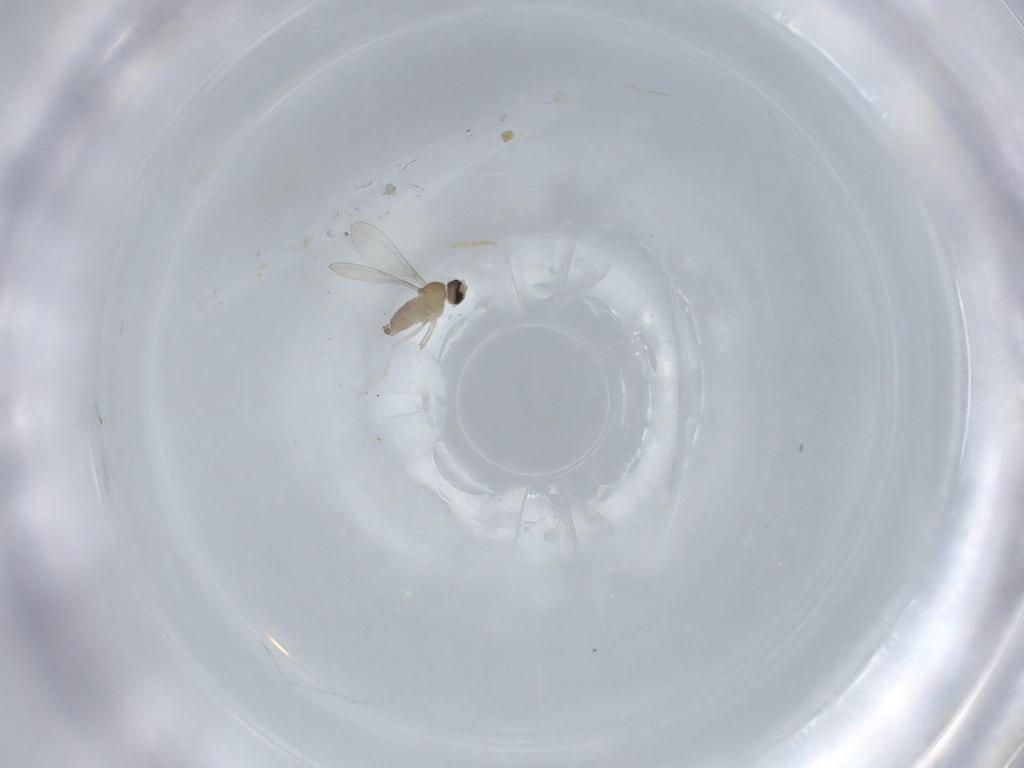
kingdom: Animalia
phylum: Arthropoda
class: Insecta
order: Diptera
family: Cecidomyiidae
